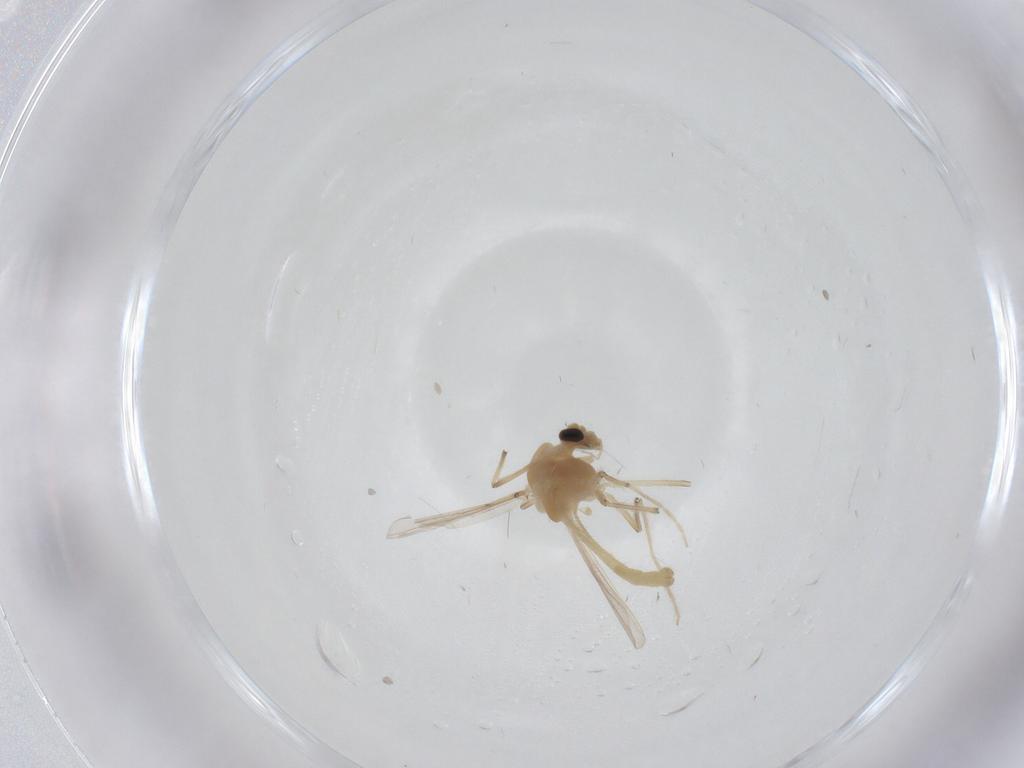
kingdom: Animalia
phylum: Arthropoda
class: Insecta
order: Diptera
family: Chironomidae
